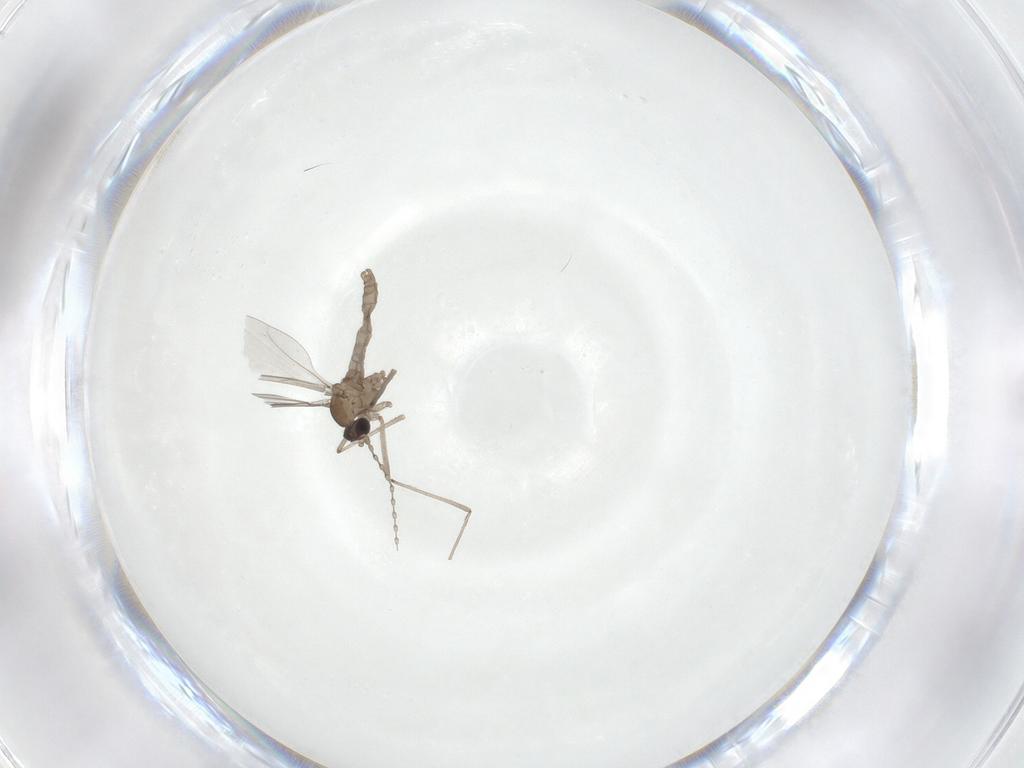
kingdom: Animalia
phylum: Arthropoda
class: Insecta
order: Diptera
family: Cecidomyiidae
